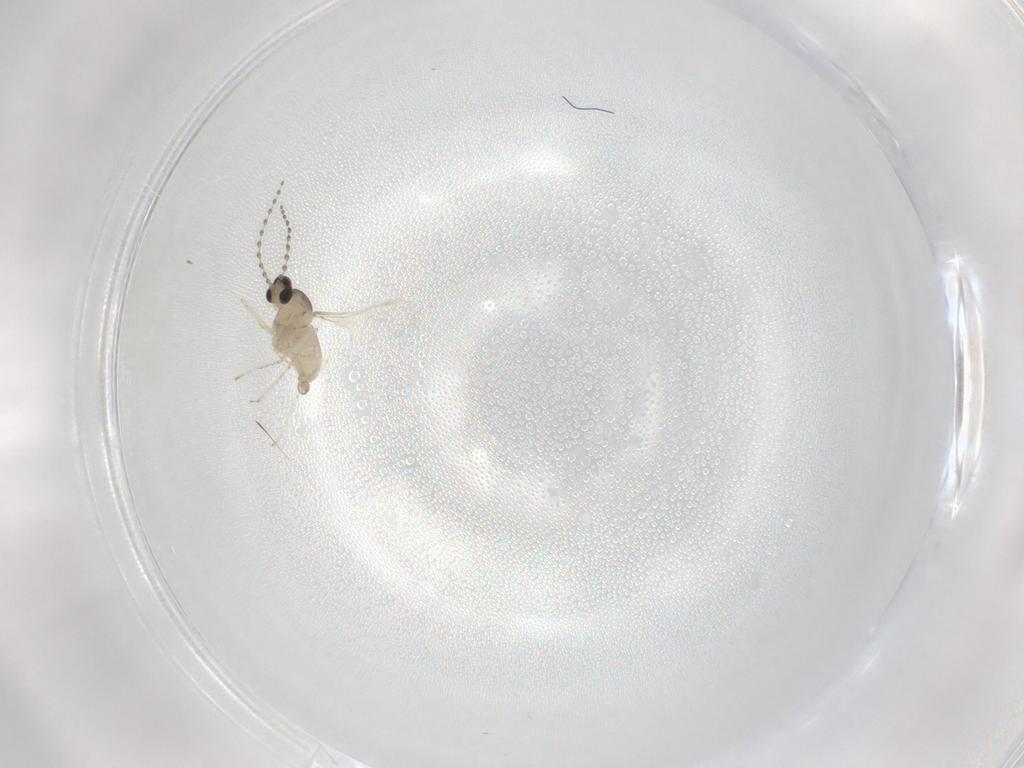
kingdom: Animalia
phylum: Arthropoda
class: Insecta
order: Diptera
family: Cecidomyiidae
